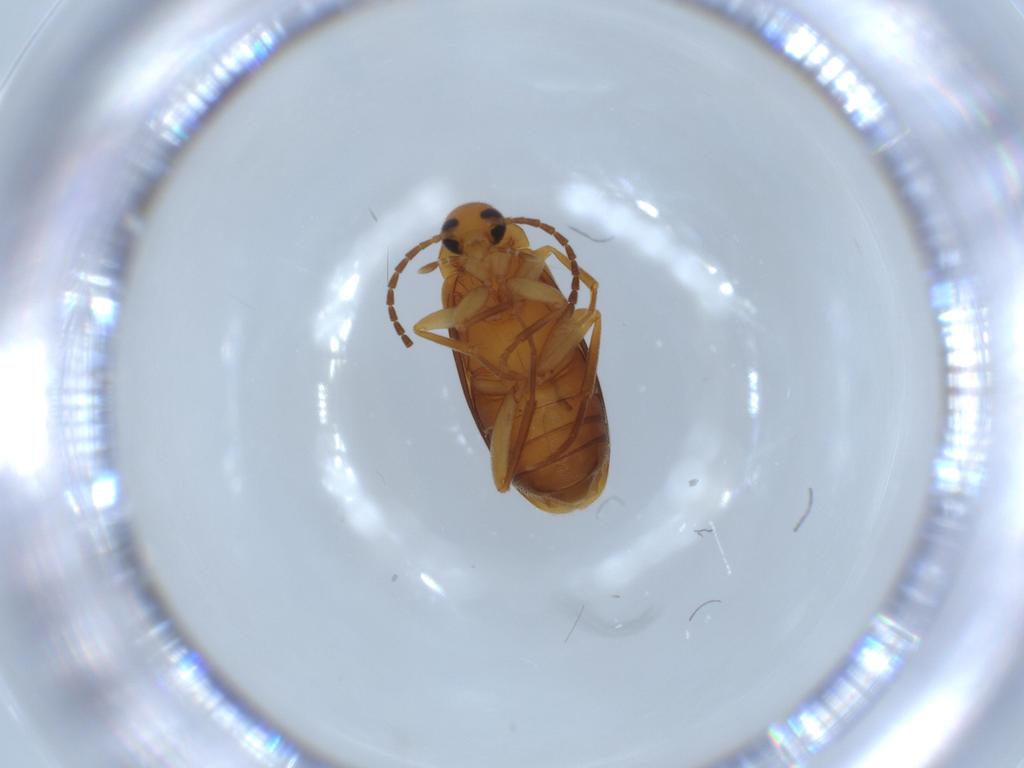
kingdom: Animalia
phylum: Arthropoda
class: Insecta
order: Coleoptera
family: Scraptiidae
